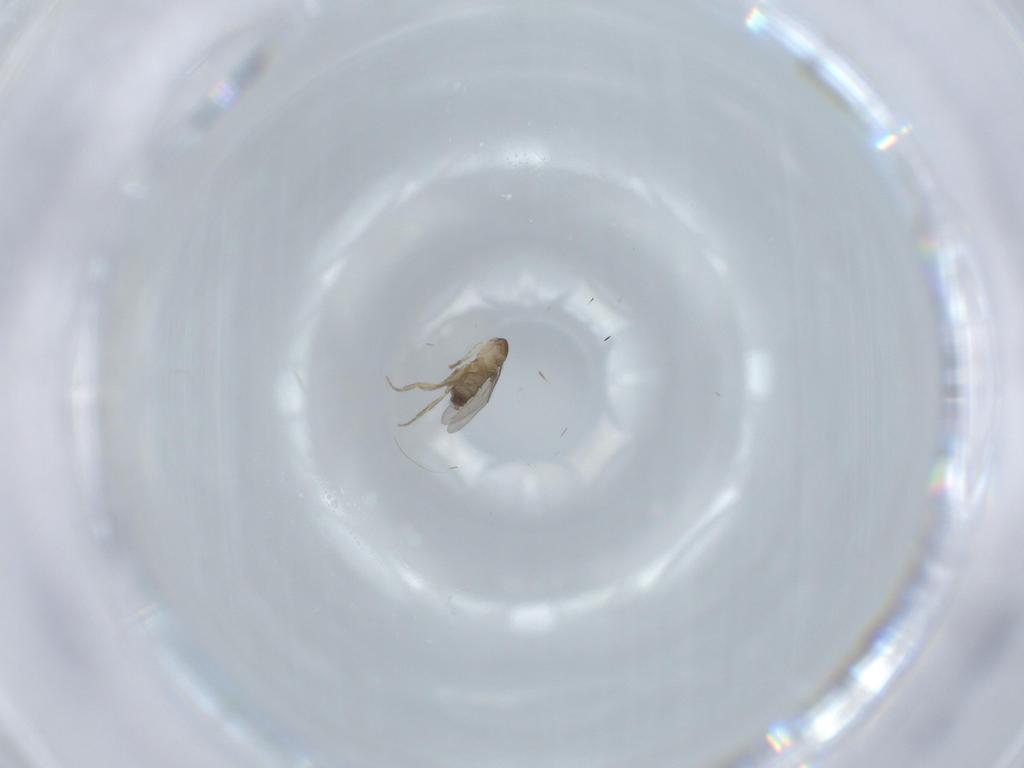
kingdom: Animalia
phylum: Arthropoda
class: Insecta
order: Diptera
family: Phoridae
